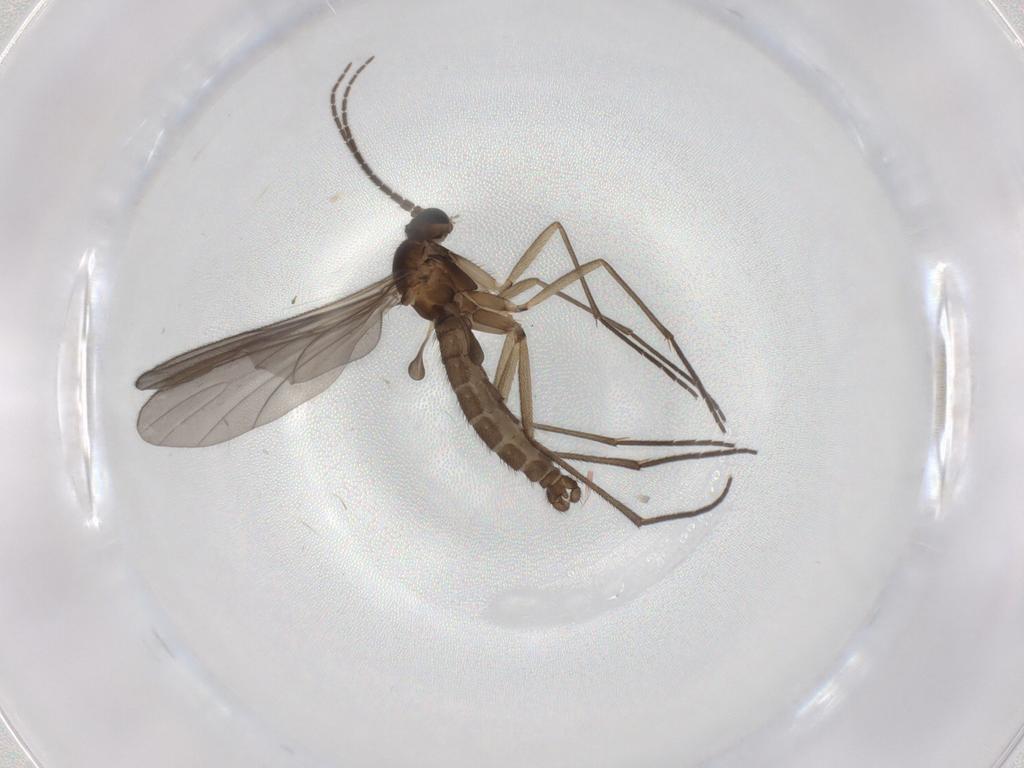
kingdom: Animalia
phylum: Arthropoda
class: Insecta
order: Diptera
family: Sciaridae
